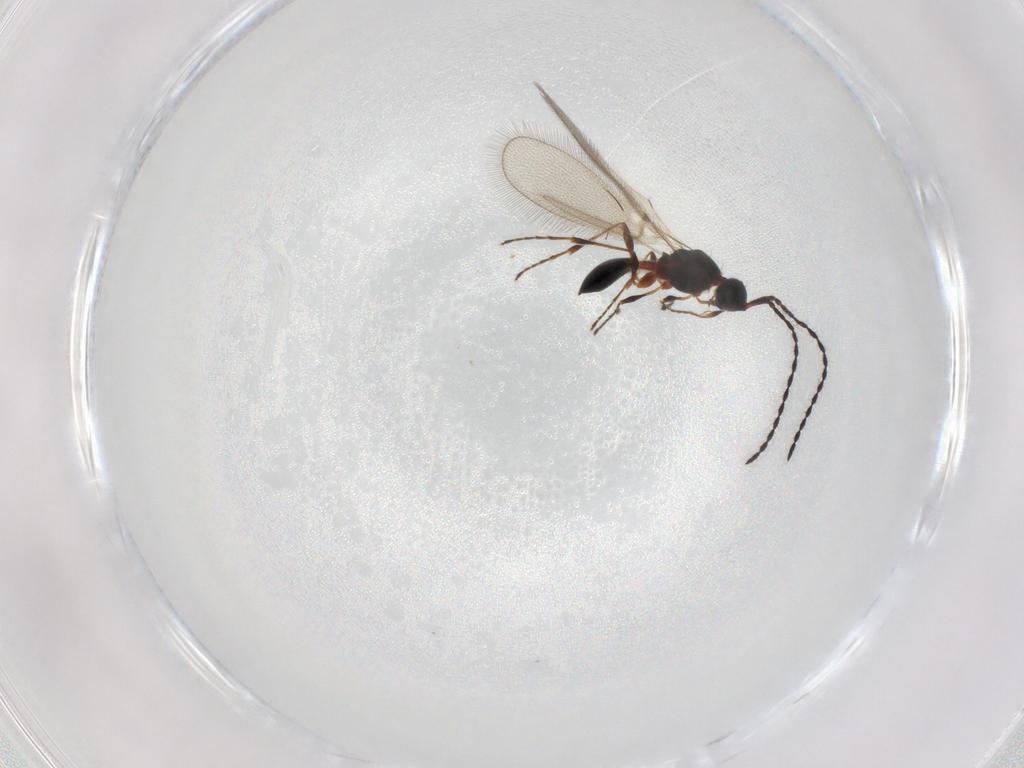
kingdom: Animalia
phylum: Arthropoda
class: Insecta
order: Hymenoptera
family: Diapriidae
